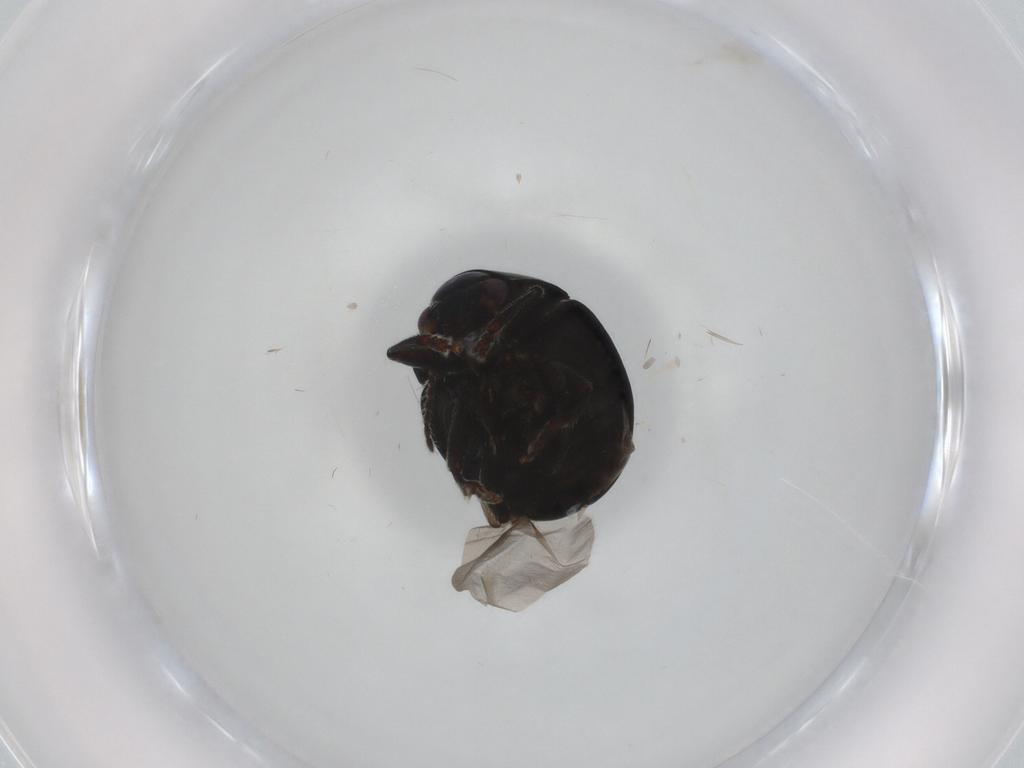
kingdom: Animalia
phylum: Arthropoda
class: Insecta
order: Coleoptera
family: Chrysomelidae
